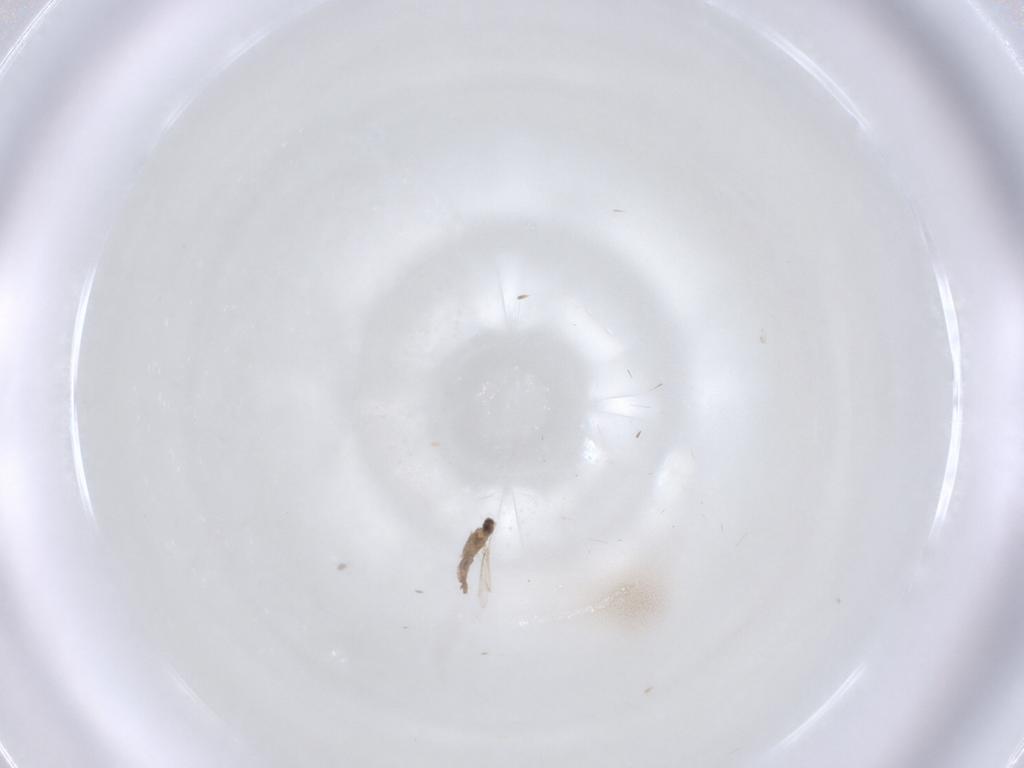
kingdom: Animalia
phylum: Arthropoda
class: Insecta
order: Diptera
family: Cecidomyiidae
